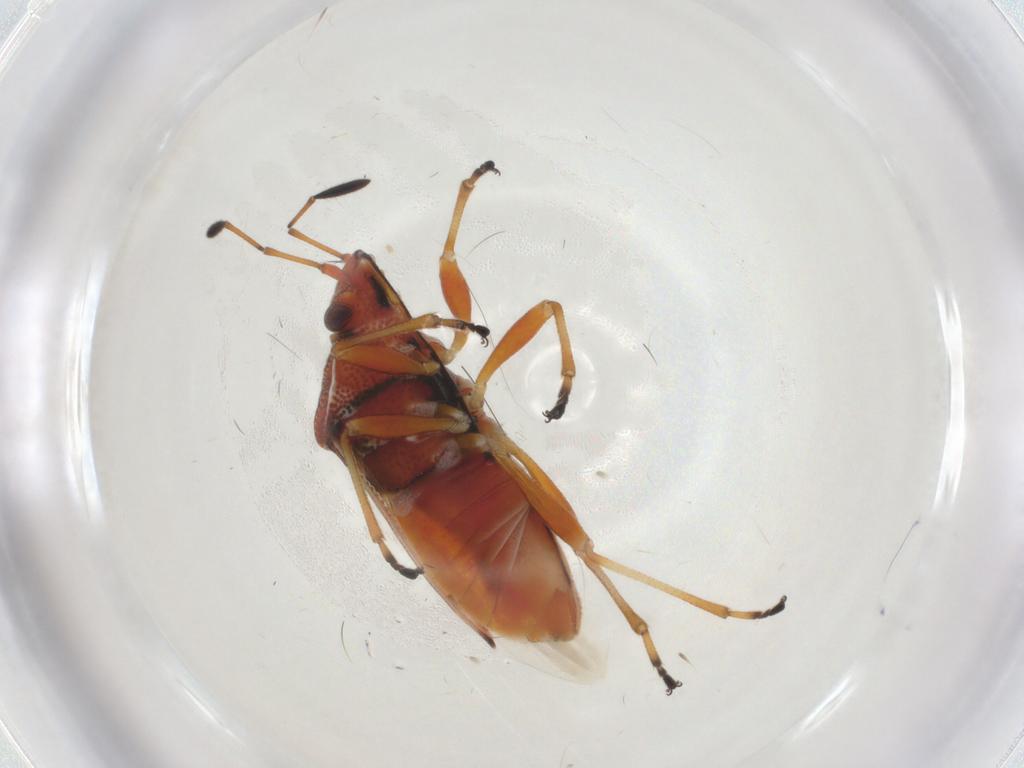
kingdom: Animalia
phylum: Arthropoda
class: Insecta
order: Hemiptera
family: Lygaeidae
